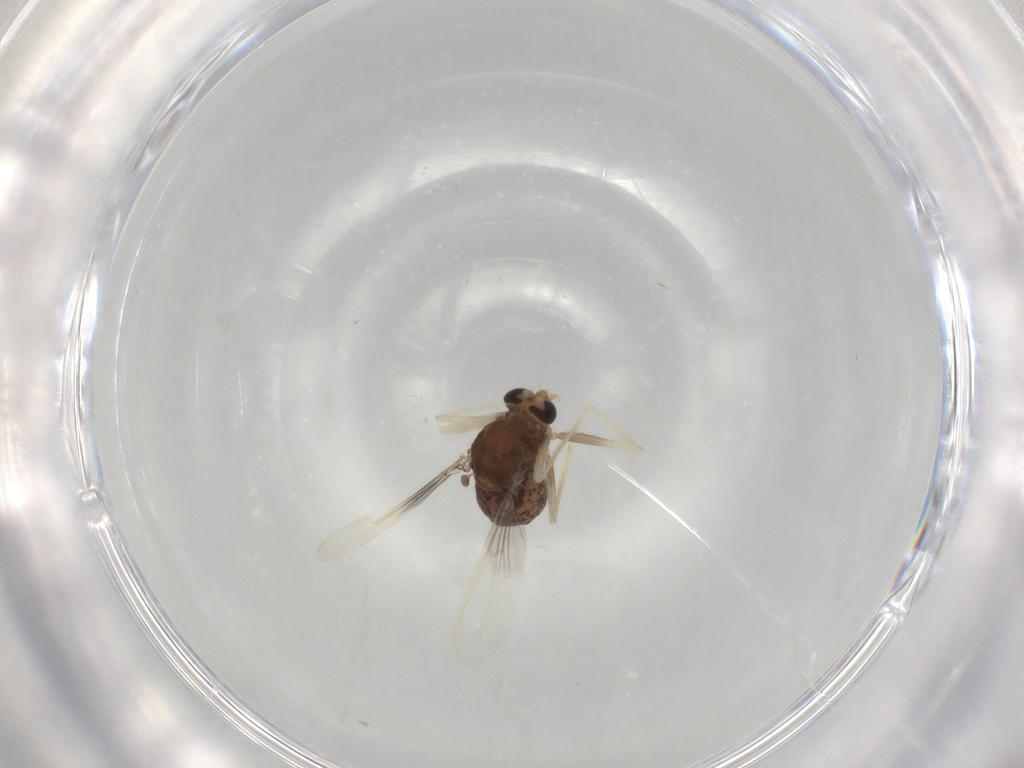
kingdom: Animalia
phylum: Arthropoda
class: Insecta
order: Diptera
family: Chironomidae
